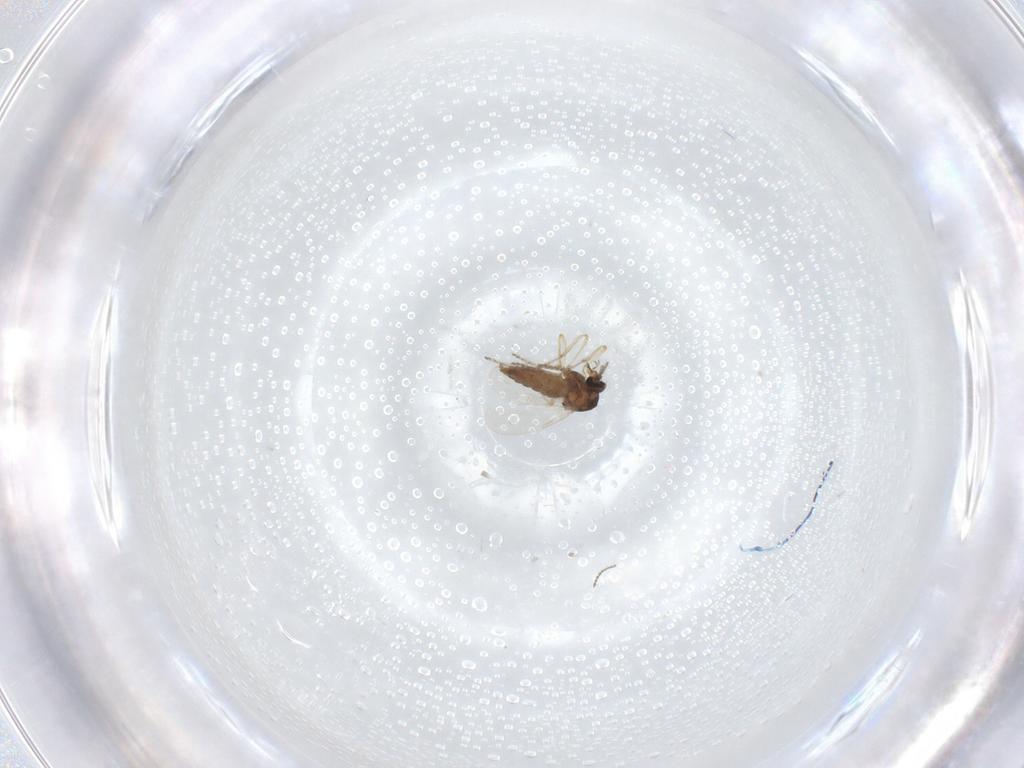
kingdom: Animalia
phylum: Arthropoda
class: Insecta
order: Diptera
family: Ceratopogonidae
